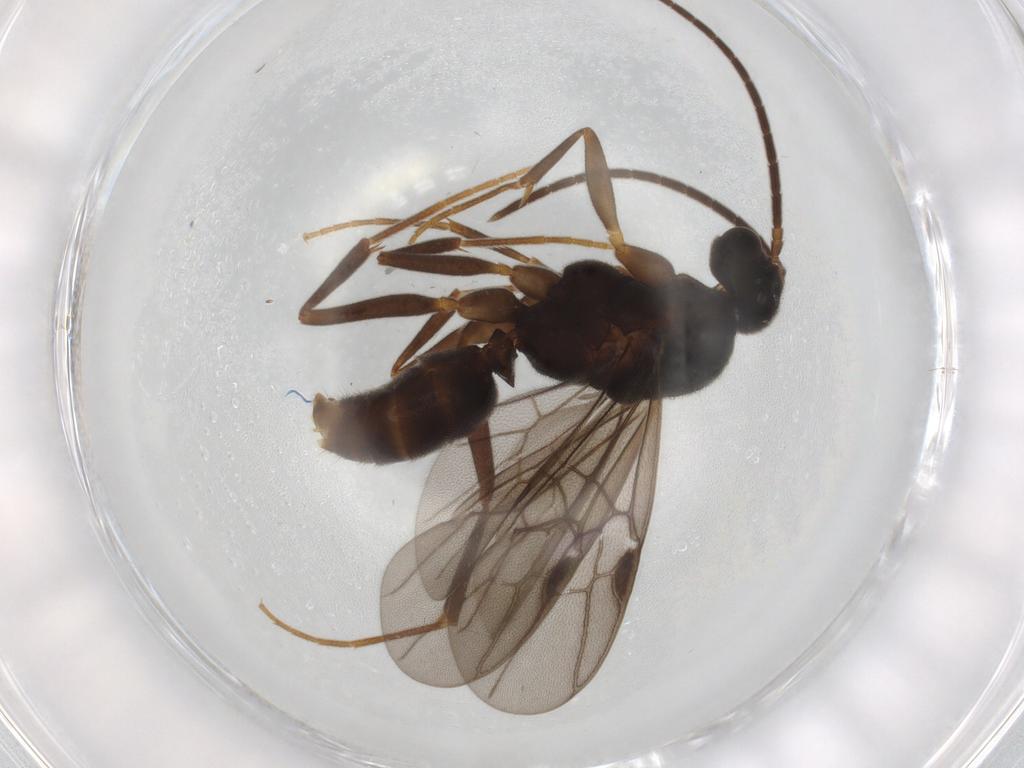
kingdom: Animalia
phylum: Arthropoda
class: Insecta
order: Hymenoptera
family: Formicidae
